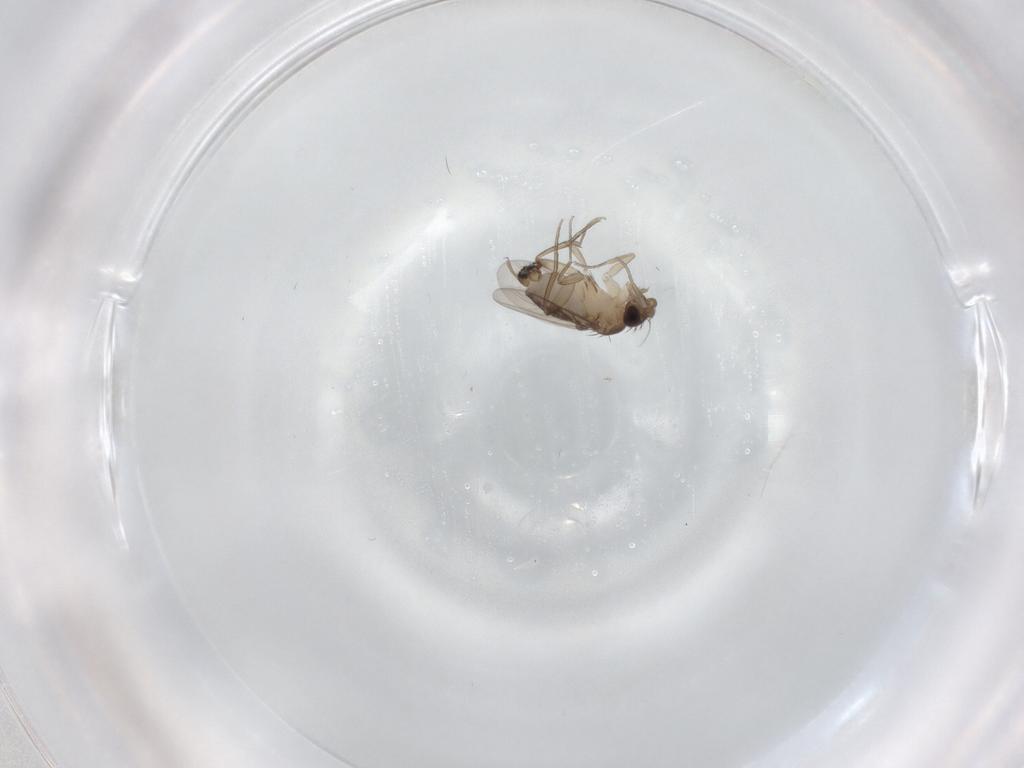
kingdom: Animalia
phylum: Arthropoda
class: Insecta
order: Diptera
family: Phoridae
